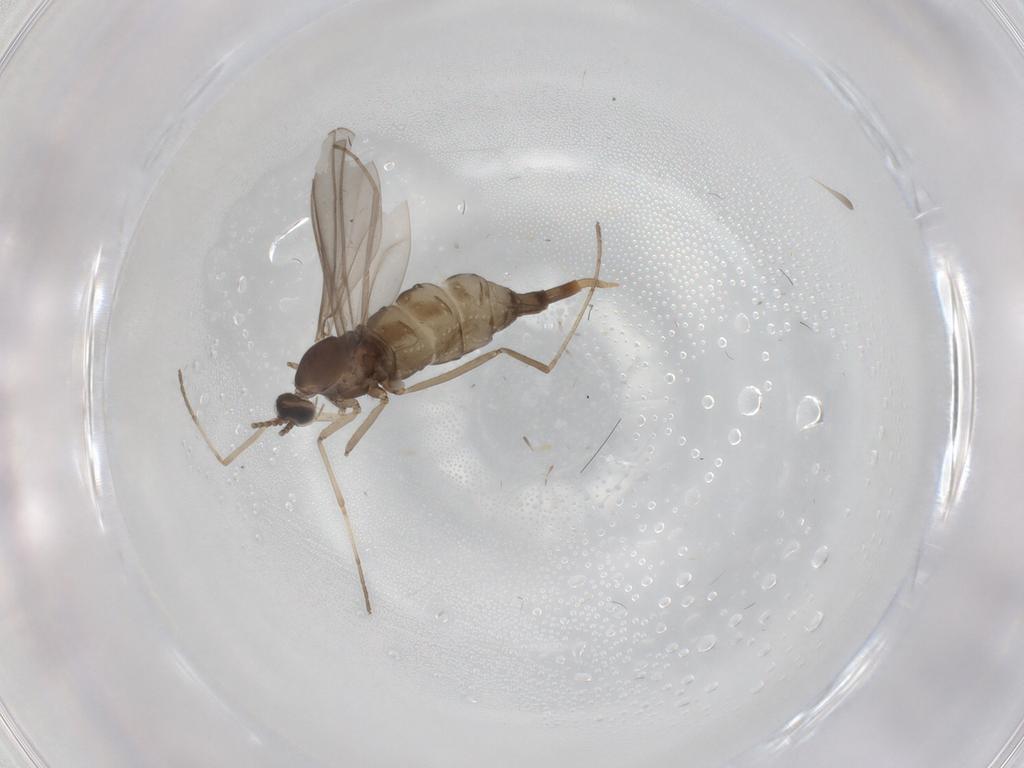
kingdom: Animalia
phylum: Arthropoda
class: Insecta
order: Diptera
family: Cecidomyiidae
